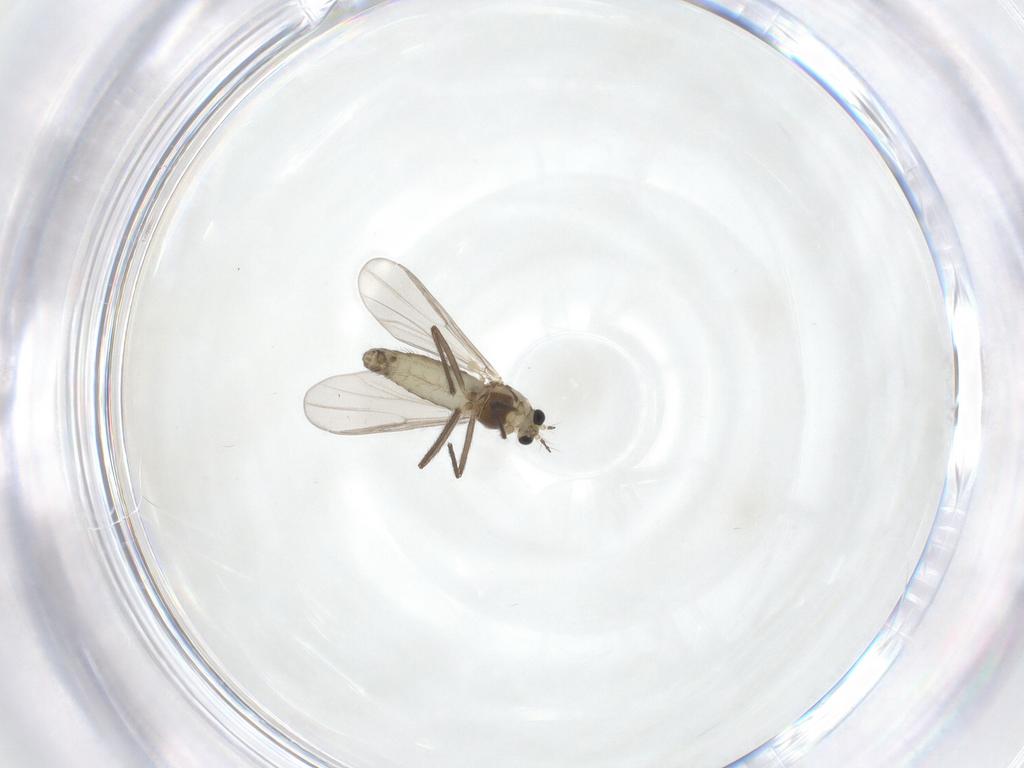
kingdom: Animalia
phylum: Arthropoda
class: Insecta
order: Diptera
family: Chironomidae
